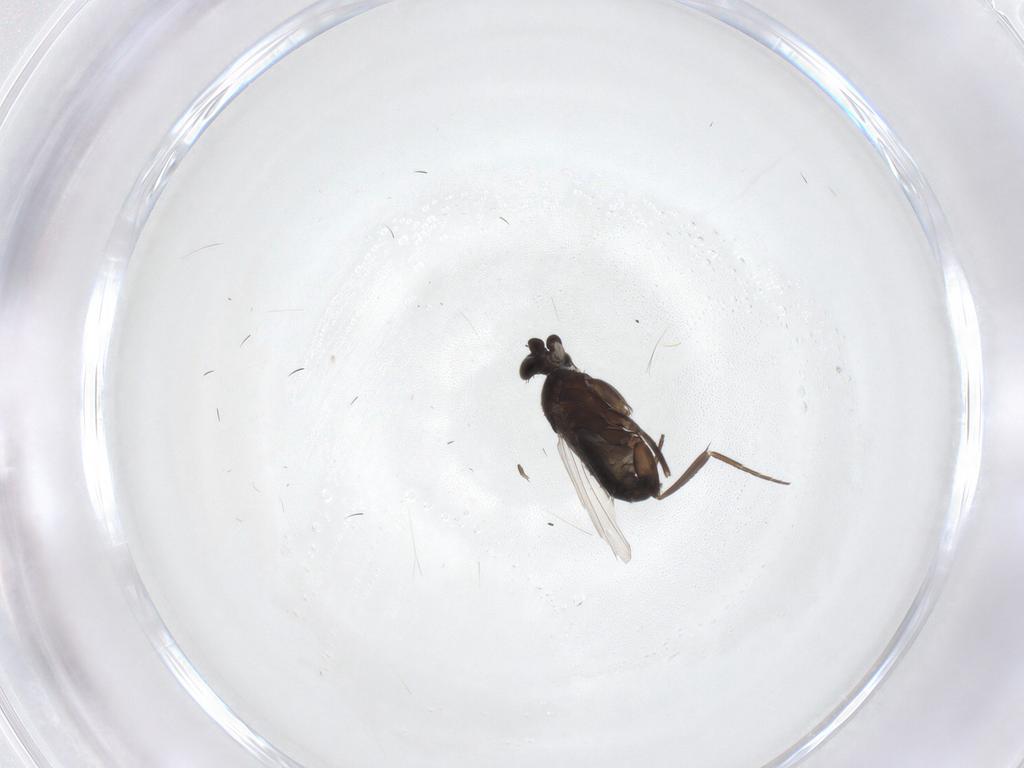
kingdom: Animalia
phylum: Arthropoda
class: Insecta
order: Diptera
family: Phoridae
